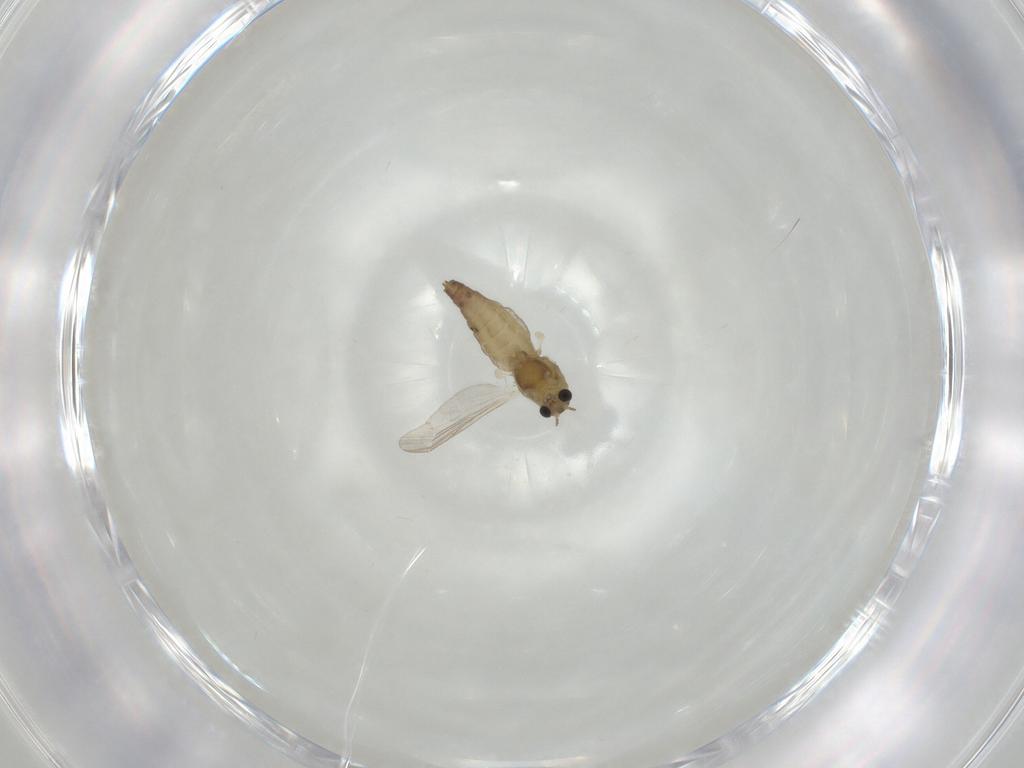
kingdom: Animalia
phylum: Arthropoda
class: Insecta
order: Diptera
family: Chironomidae
